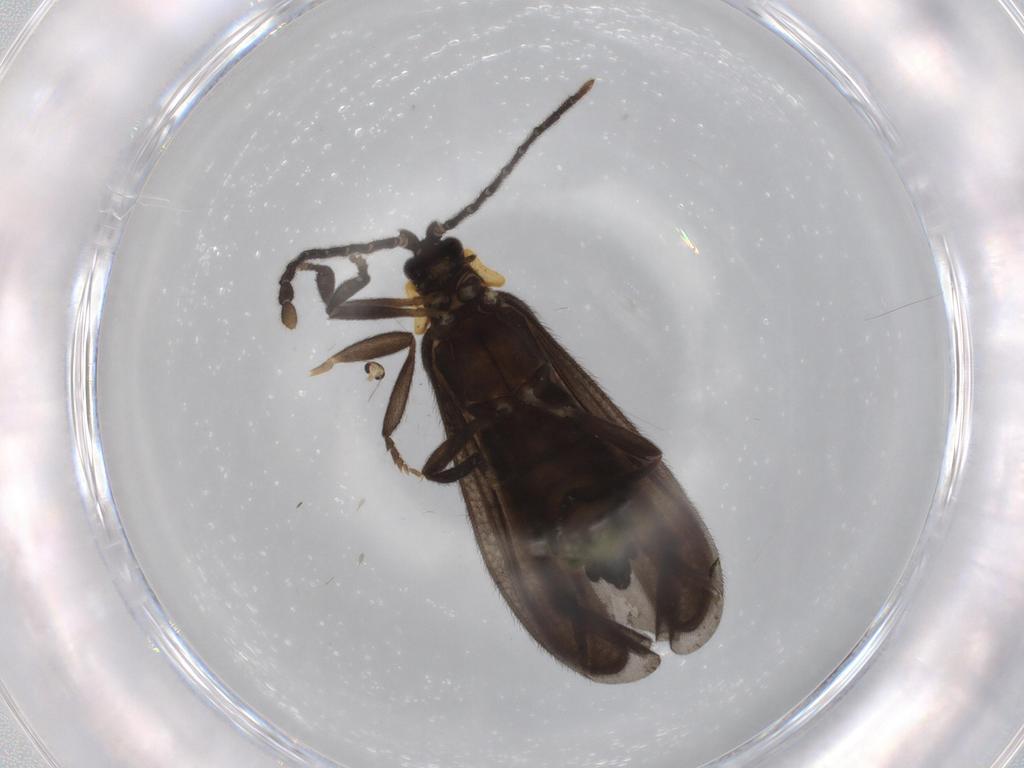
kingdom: Animalia
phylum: Arthropoda
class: Insecta
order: Coleoptera
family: Lycidae
